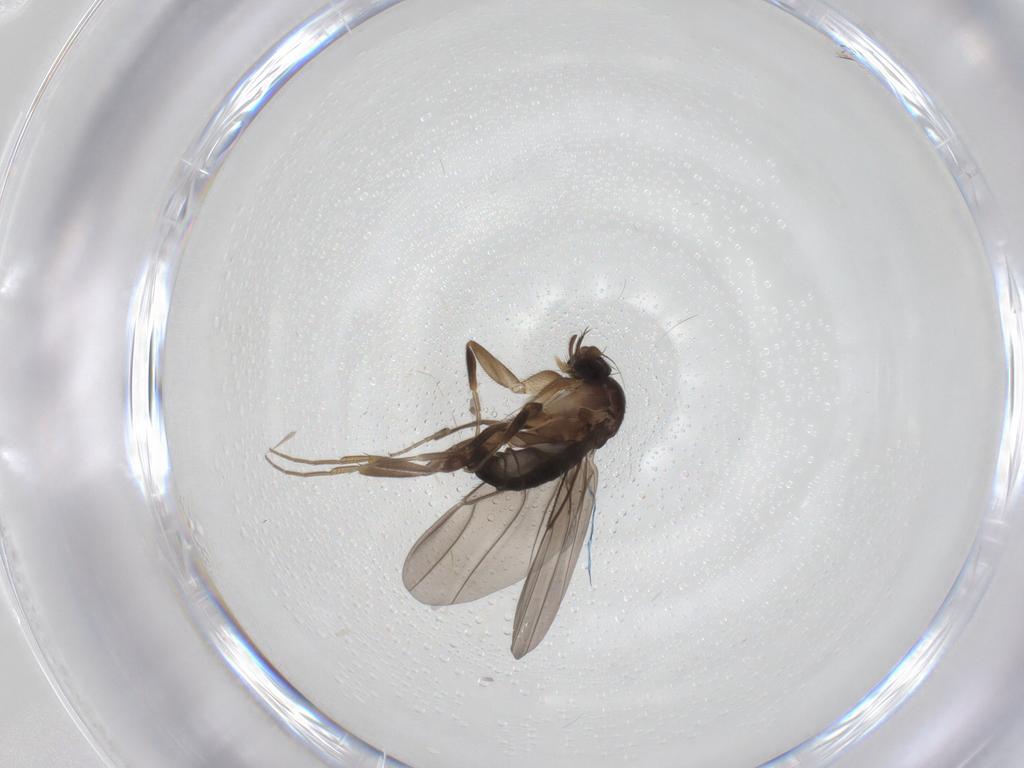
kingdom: Animalia
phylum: Arthropoda
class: Insecta
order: Diptera
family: Phoridae
